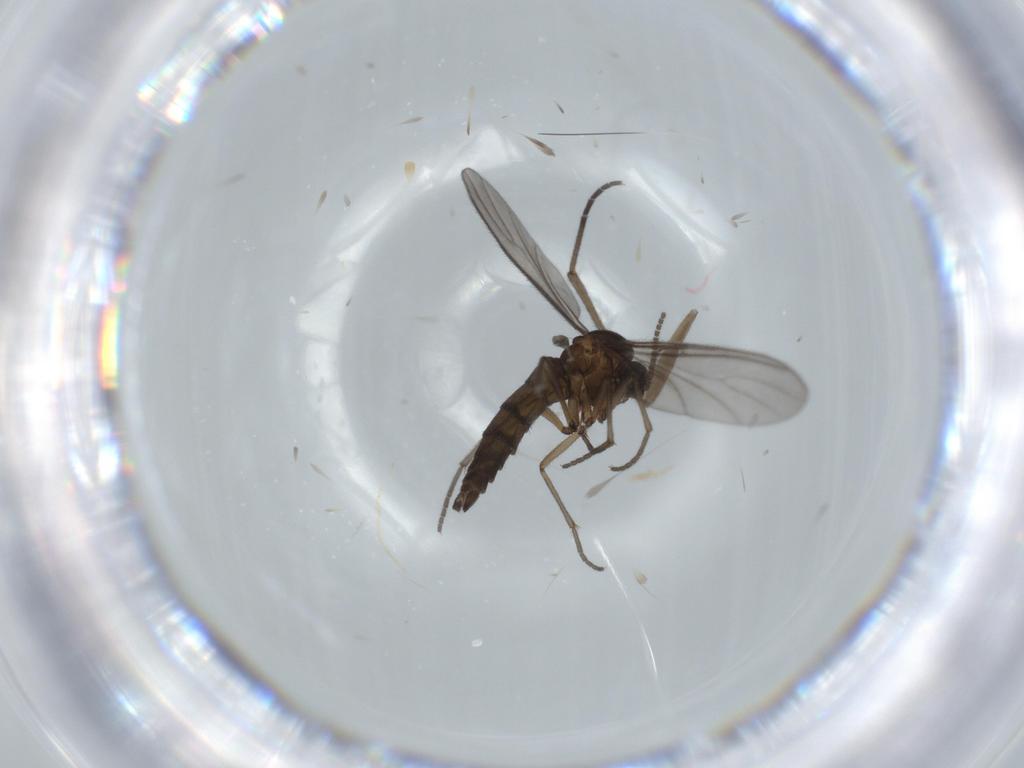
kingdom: Animalia
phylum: Arthropoda
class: Insecta
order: Diptera
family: Sciaridae
